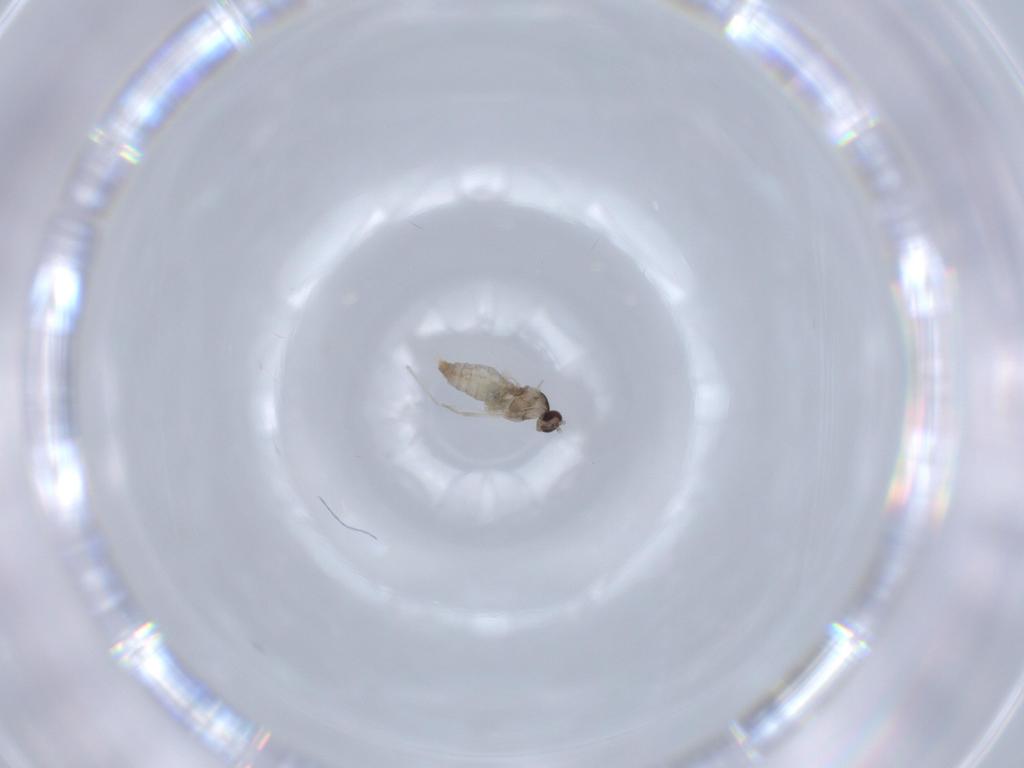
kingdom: Animalia
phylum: Arthropoda
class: Insecta
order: Diptera
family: Cecidomyiidae
